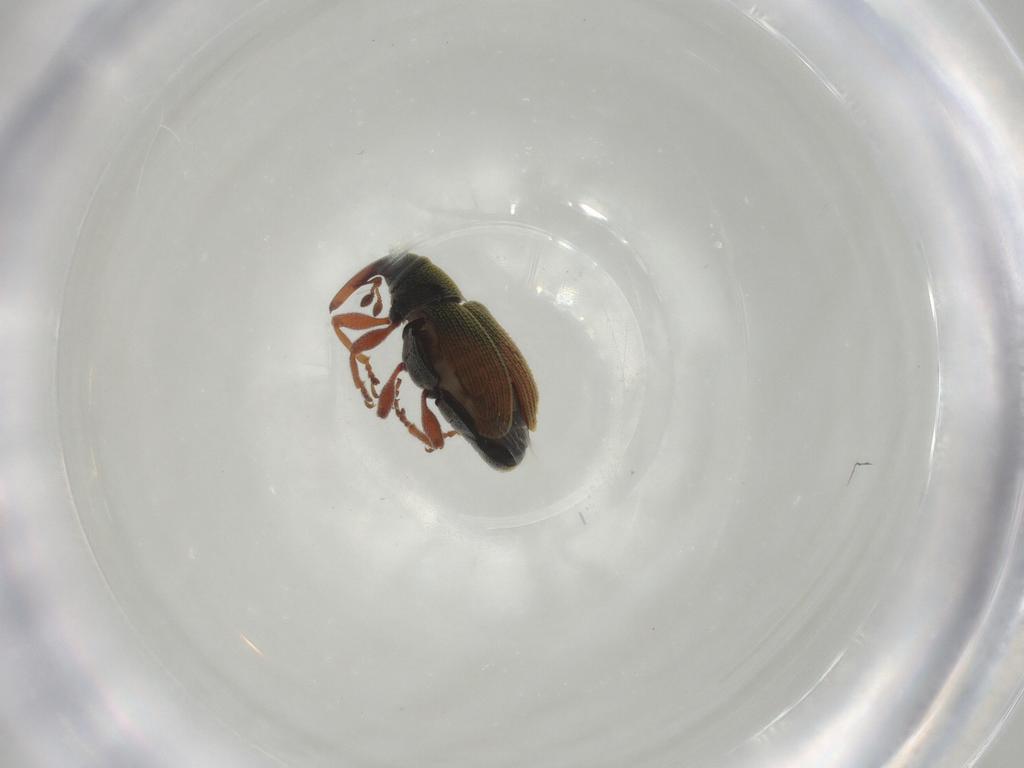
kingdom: Animalia
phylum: Arthropoda
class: Insecta
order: Coleoptera
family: Curculionidae
